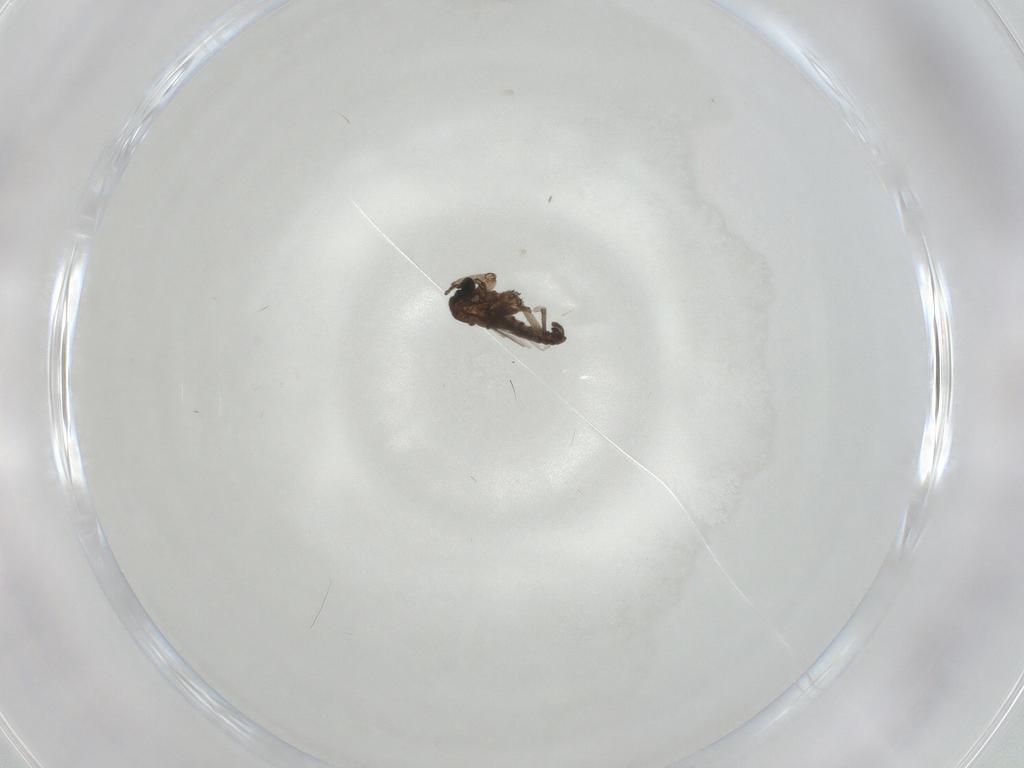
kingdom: Animalia
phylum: Arthropoda
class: Insecta
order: Diptera
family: Sciaridae
